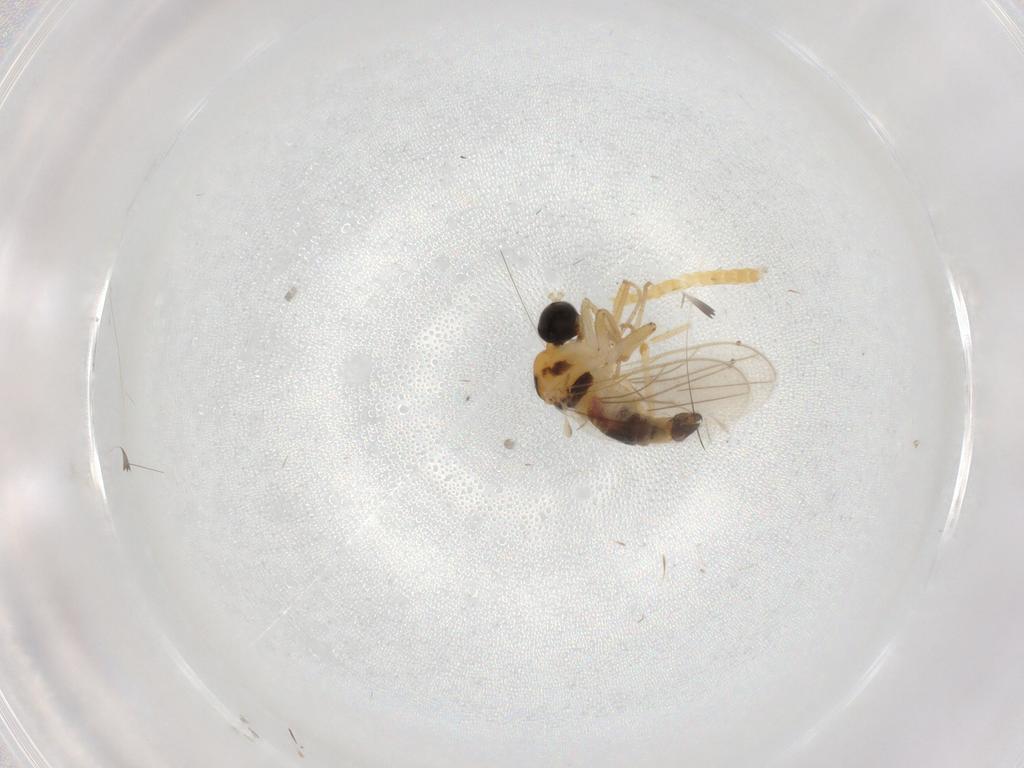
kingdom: Animalia
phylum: Arthropoda
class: Insecta
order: Diptera
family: Hybotidae
